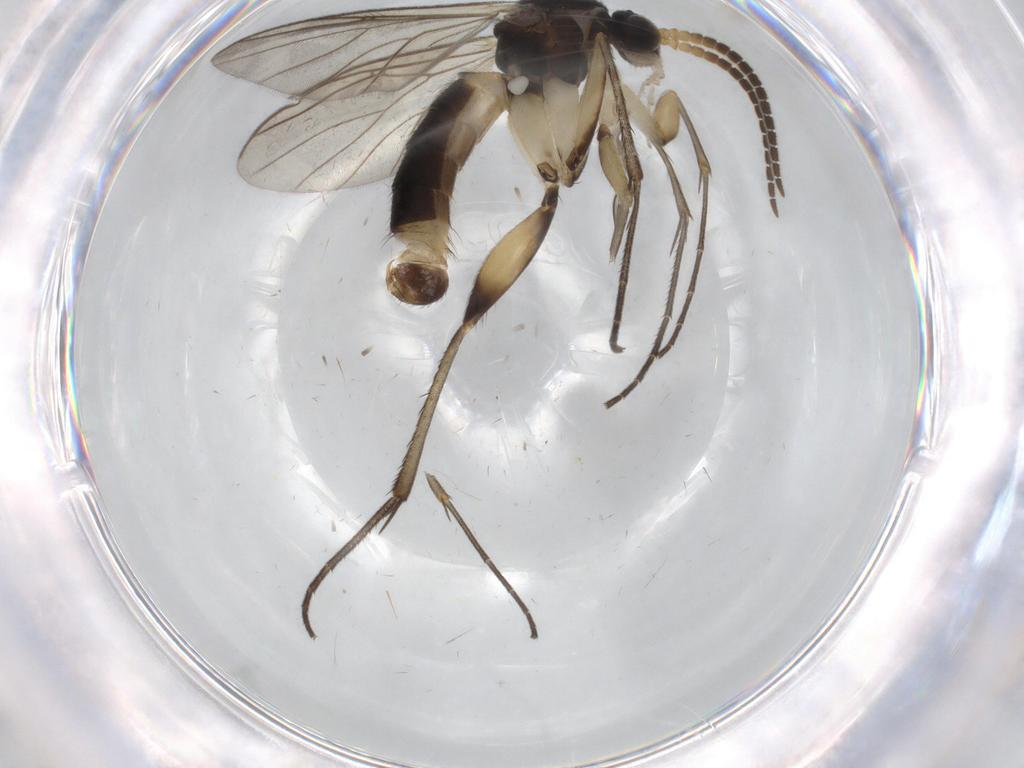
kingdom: Animalia
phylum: Arthropoda
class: Insecta
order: Diptera
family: Mycetophilidae
